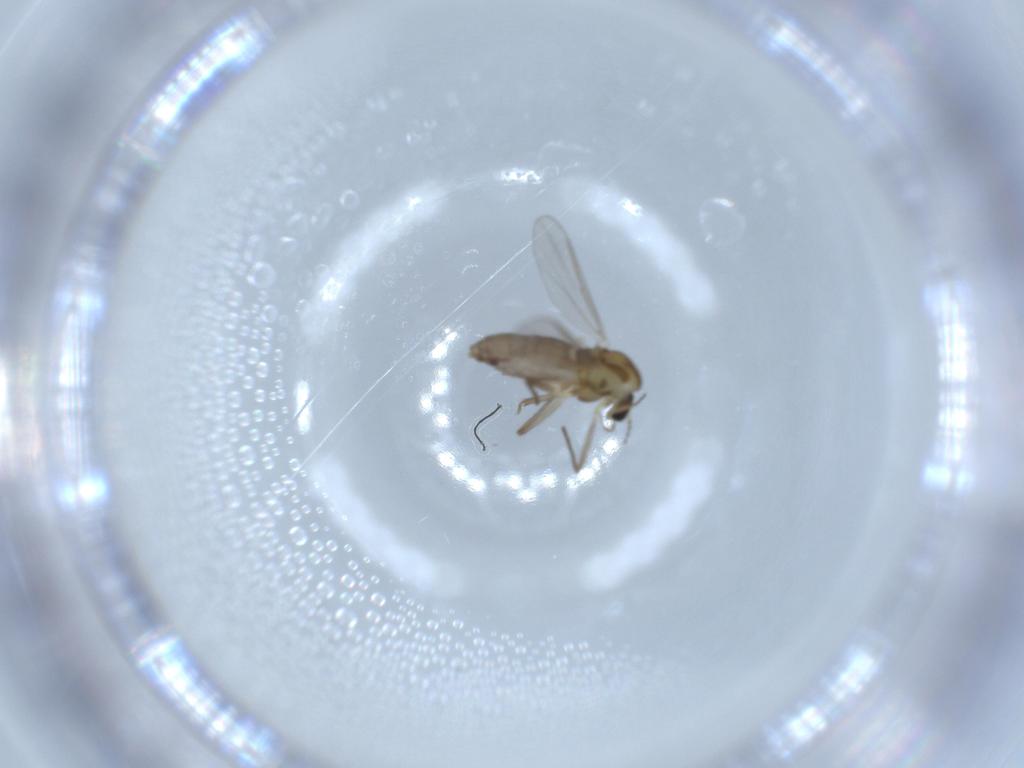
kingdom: Animalia
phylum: Arthropoda
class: Insecta
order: Diptera
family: Chironomidae
